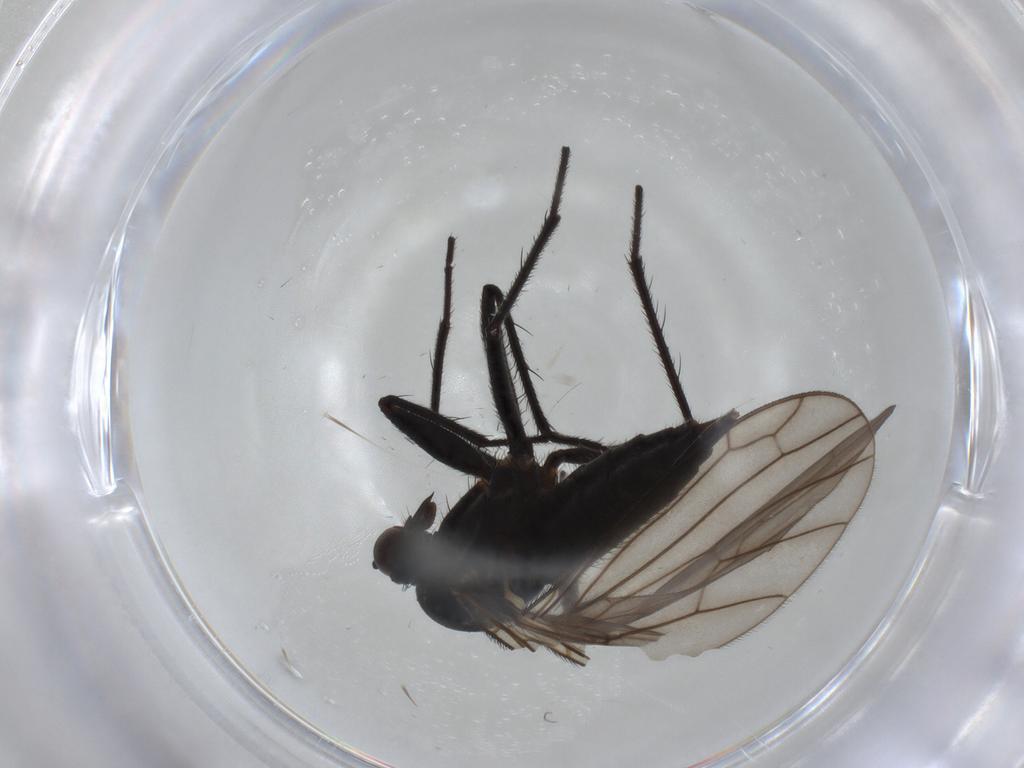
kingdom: Animalia
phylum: Arthropoda
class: Insecta
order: Diptera
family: Empididae
